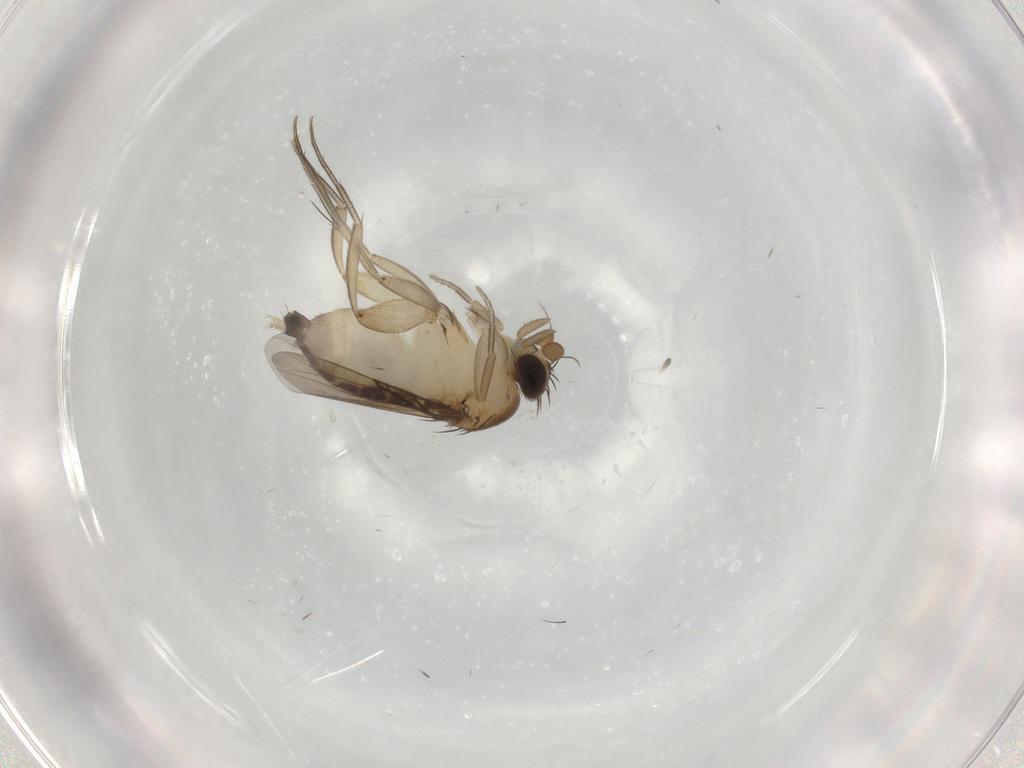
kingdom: Animalia
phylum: Arthropoda
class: Insecta
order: Diptera
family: Phoridae
